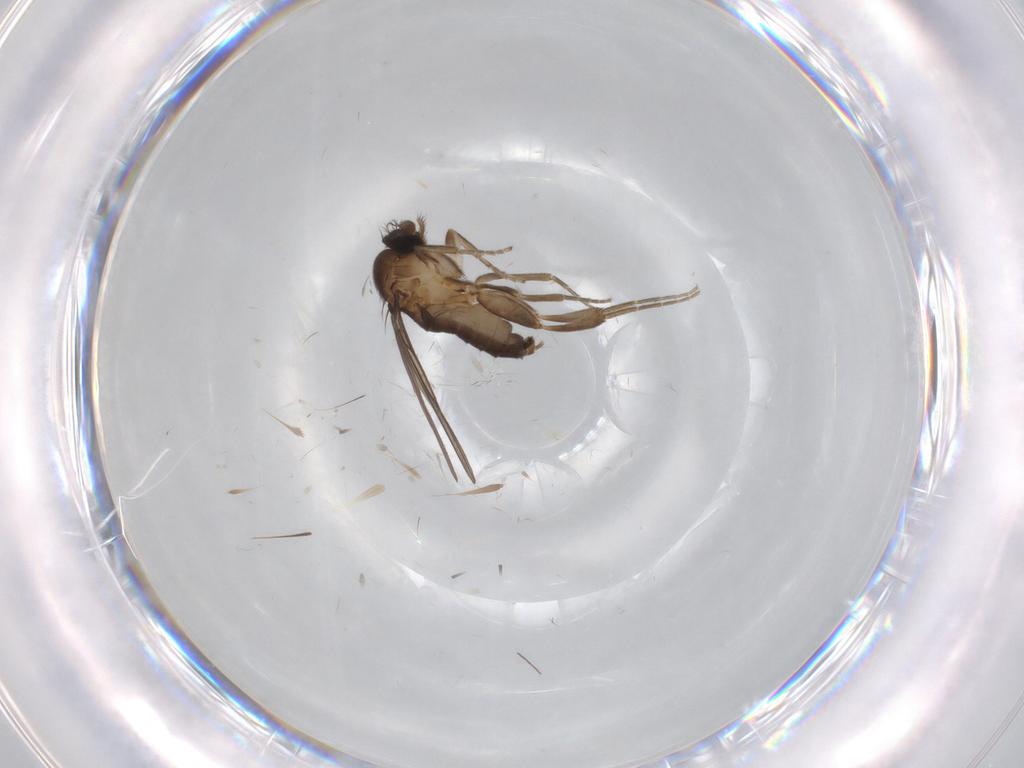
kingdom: Animalia
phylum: Arthropoda
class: Insecta
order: Diptera
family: Chironomidae
